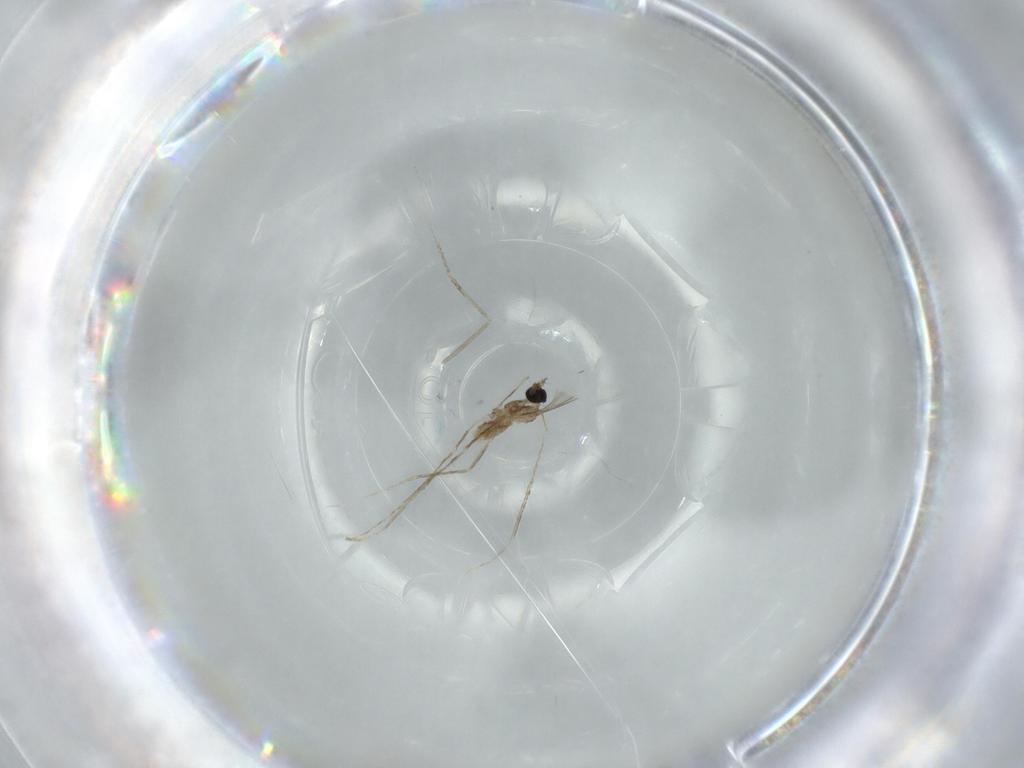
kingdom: Animalia
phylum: Arthropoda
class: Insecta
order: Diptera
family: Cecidomyiidae
